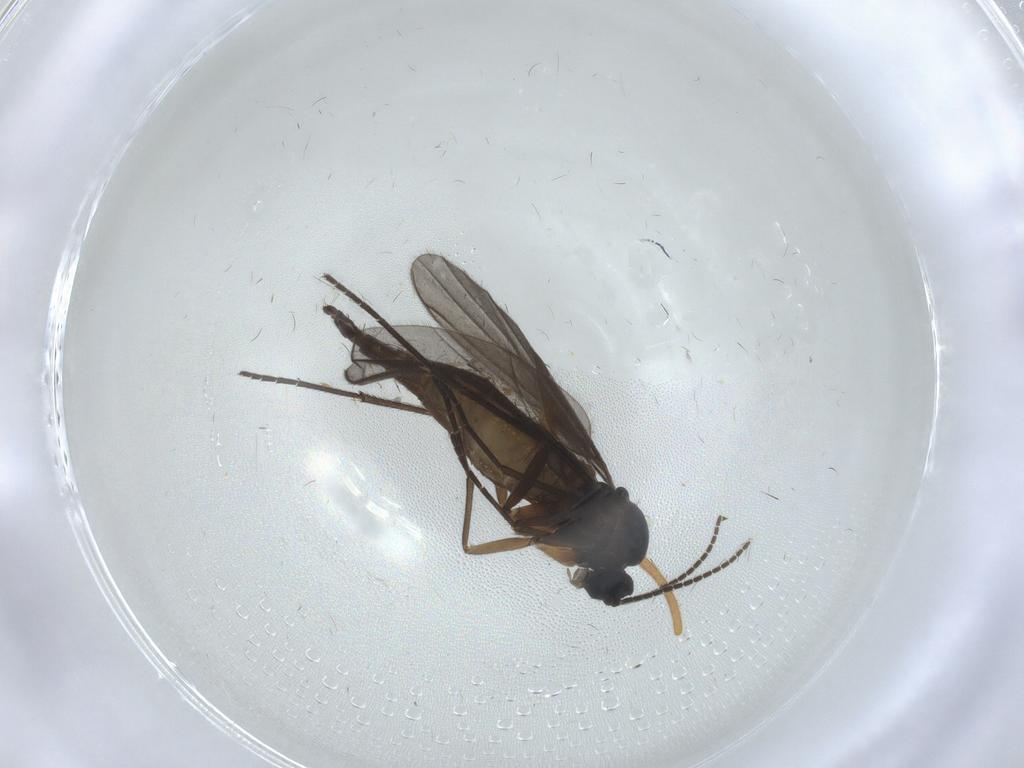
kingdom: Animalia
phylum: Arthropoda
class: Insecta
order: Diptera
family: Sciaridae
